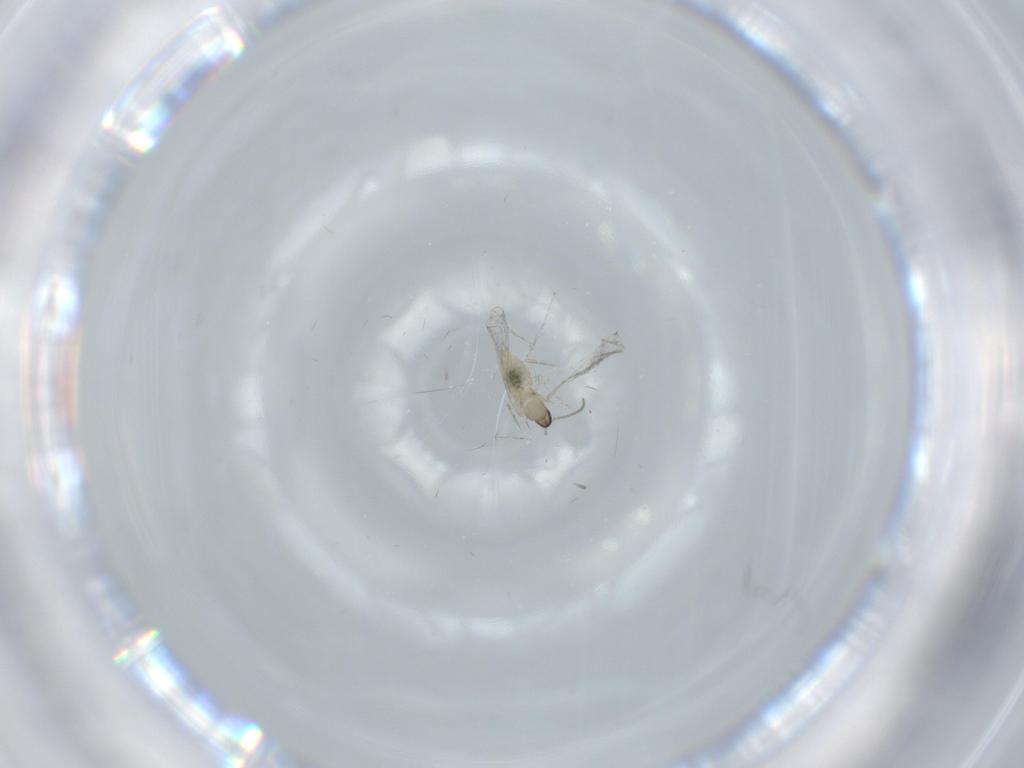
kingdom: Animalia
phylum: Arthropoda
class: Insecta
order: Diptera
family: Cecidomyiidae
